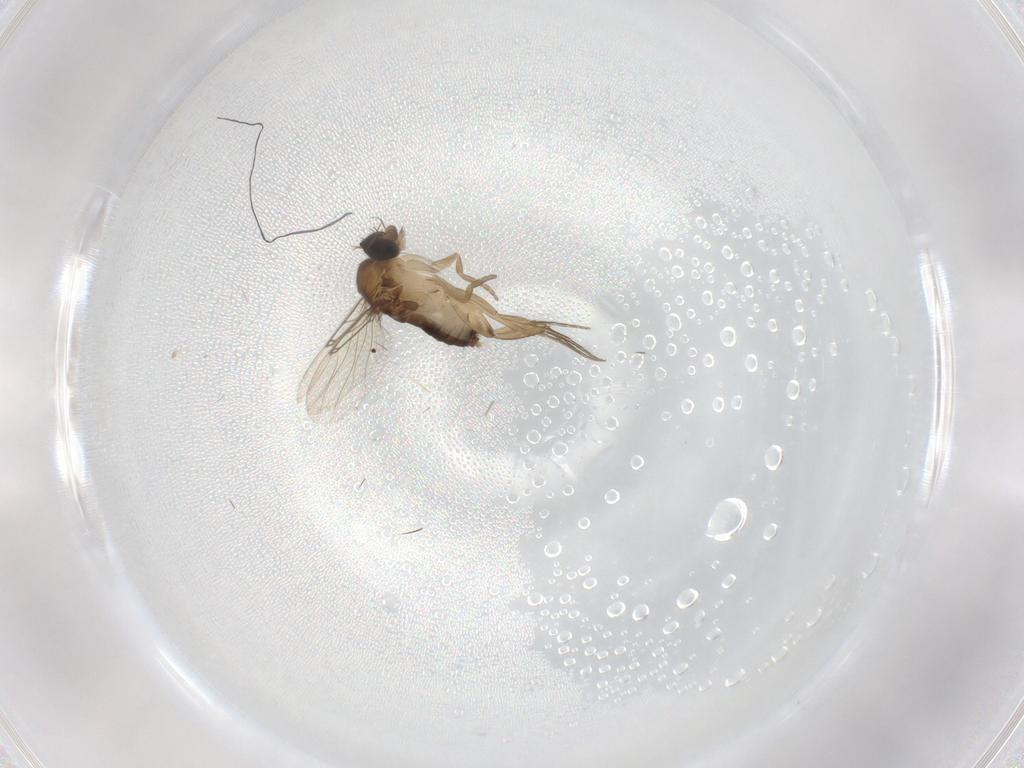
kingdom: Animalia
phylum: Arthropoda
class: Insecta
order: Diptera
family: Phoridae
